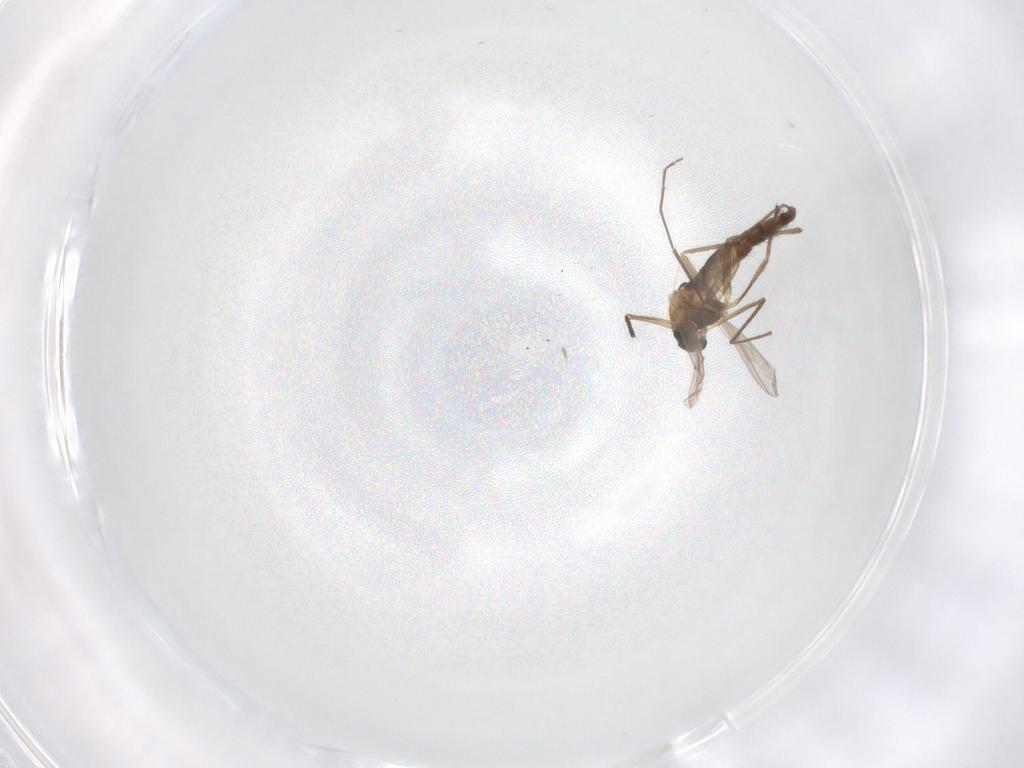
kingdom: Animalia
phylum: Arthropoda
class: Insecta
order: Diptera
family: Chironomidae
